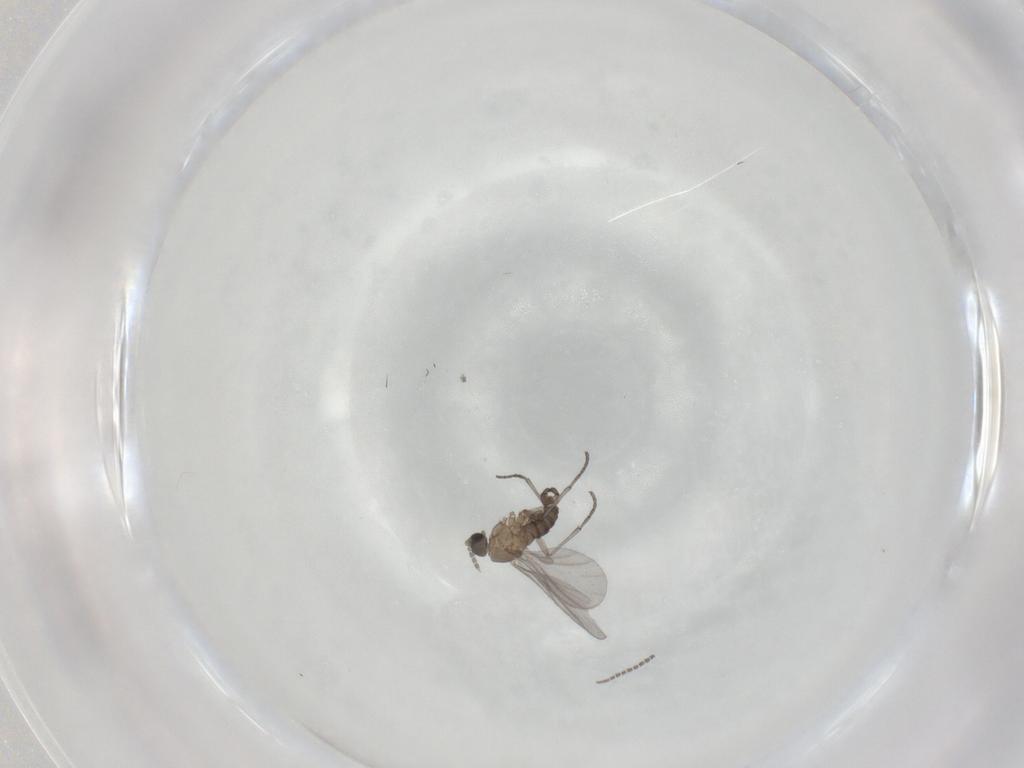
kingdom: Animalia
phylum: Arthropoda
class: Insecta
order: Diptera
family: Sciaridae
